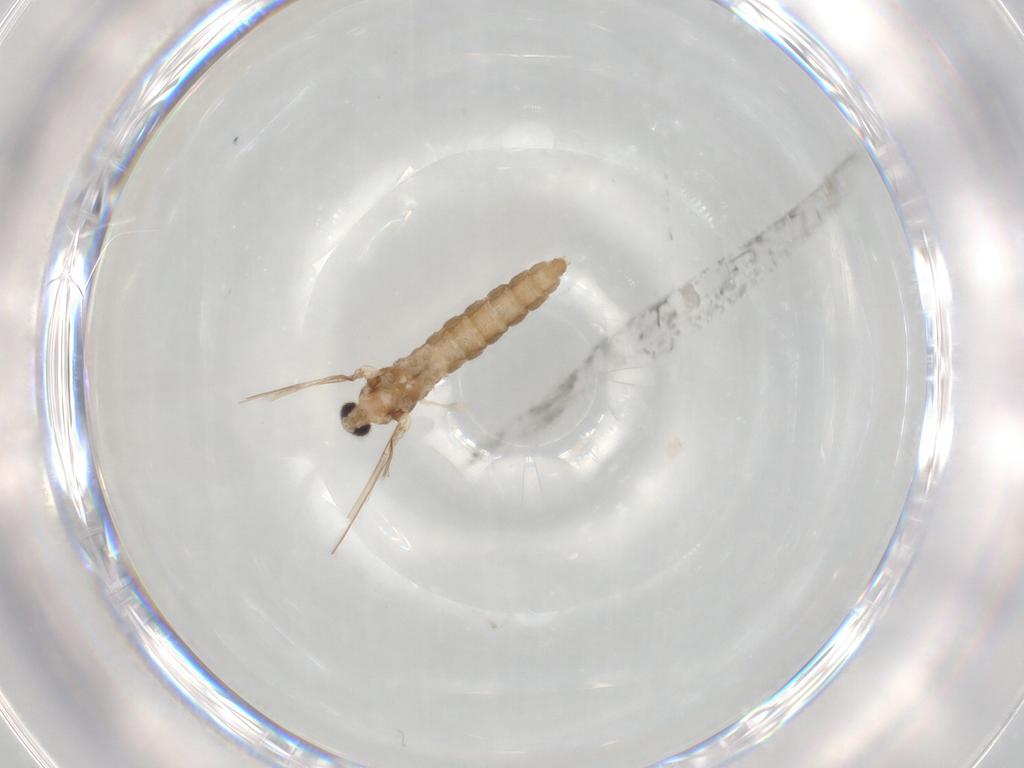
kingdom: Animalia
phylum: Arthropoda
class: Insecta
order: Diptera
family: Cecidomyiidae
